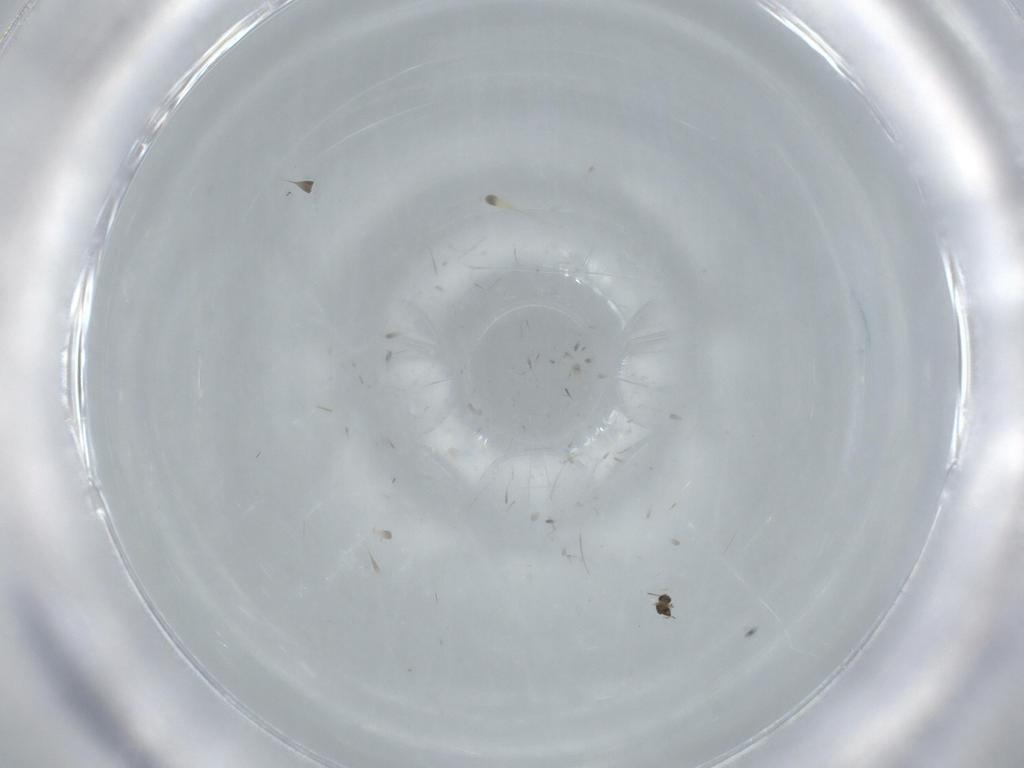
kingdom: Animalia
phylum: Arthropoda
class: Insecta
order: Diptera
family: Cecidomyiidae
